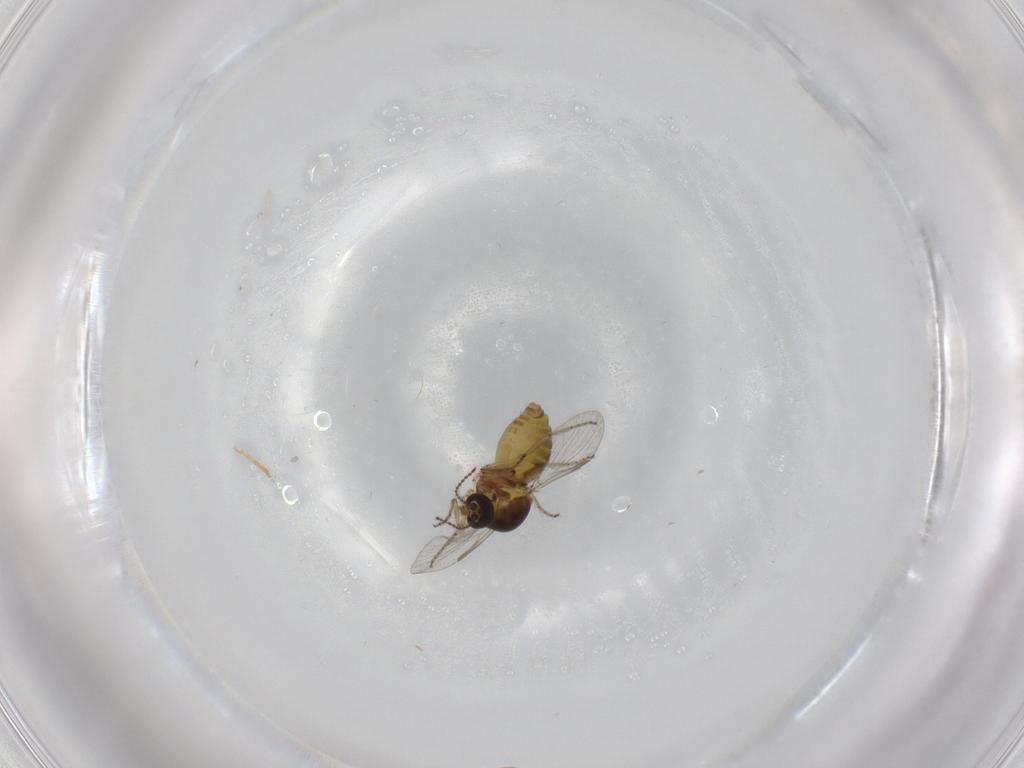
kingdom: Animalia
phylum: Arthropoda
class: Insecta
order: Diptera
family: Ceratopogonidae
